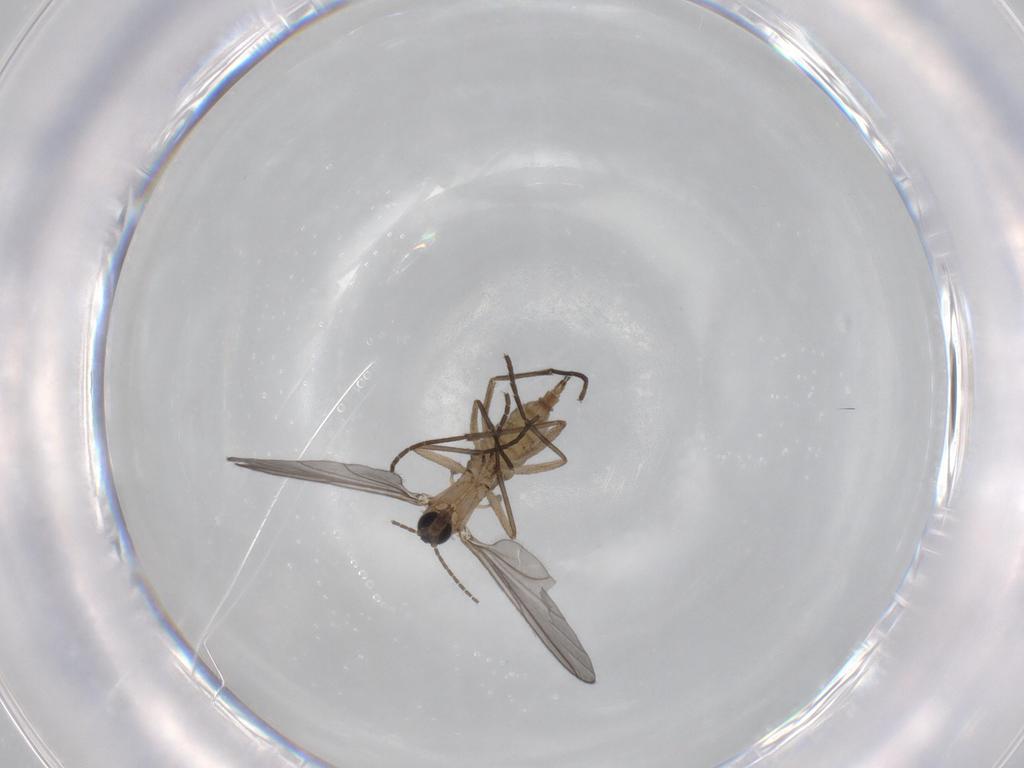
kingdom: Animalia
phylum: Arthropoda
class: Insecta
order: Diptera
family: Sciaridae
